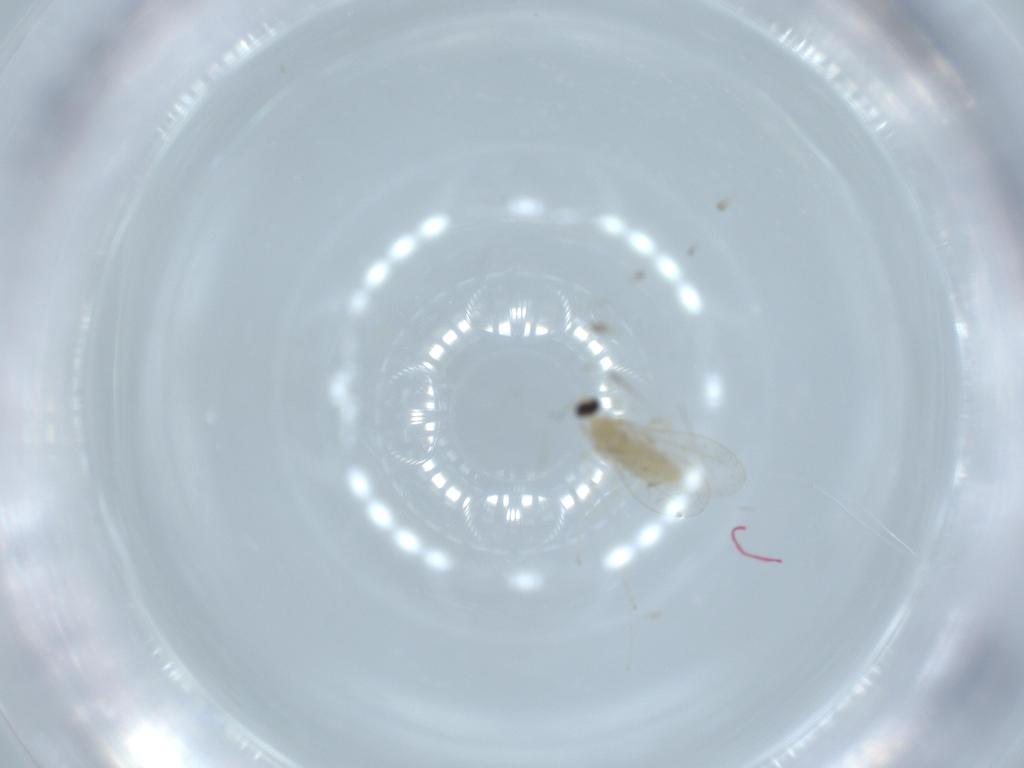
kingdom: Animalia
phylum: Arthropoda
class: Insecta
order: Diptera
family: Cecidomyiidae
